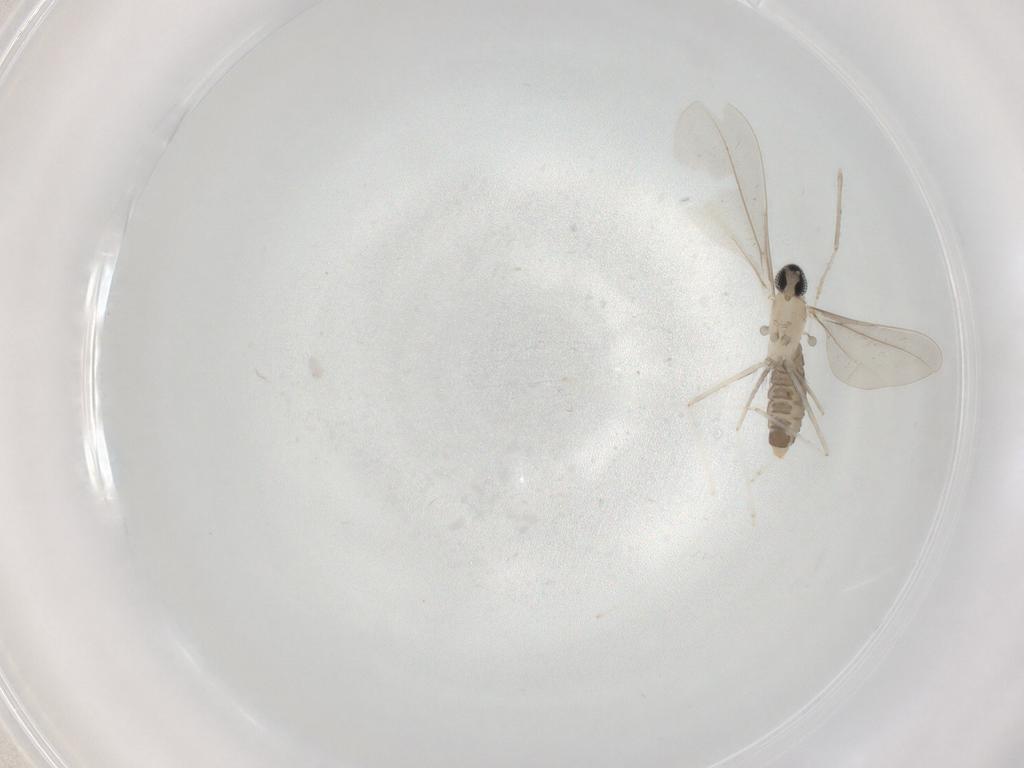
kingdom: Animalia
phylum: Arthropoda
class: Insecta
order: Diptera
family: Cecidomyiidae
